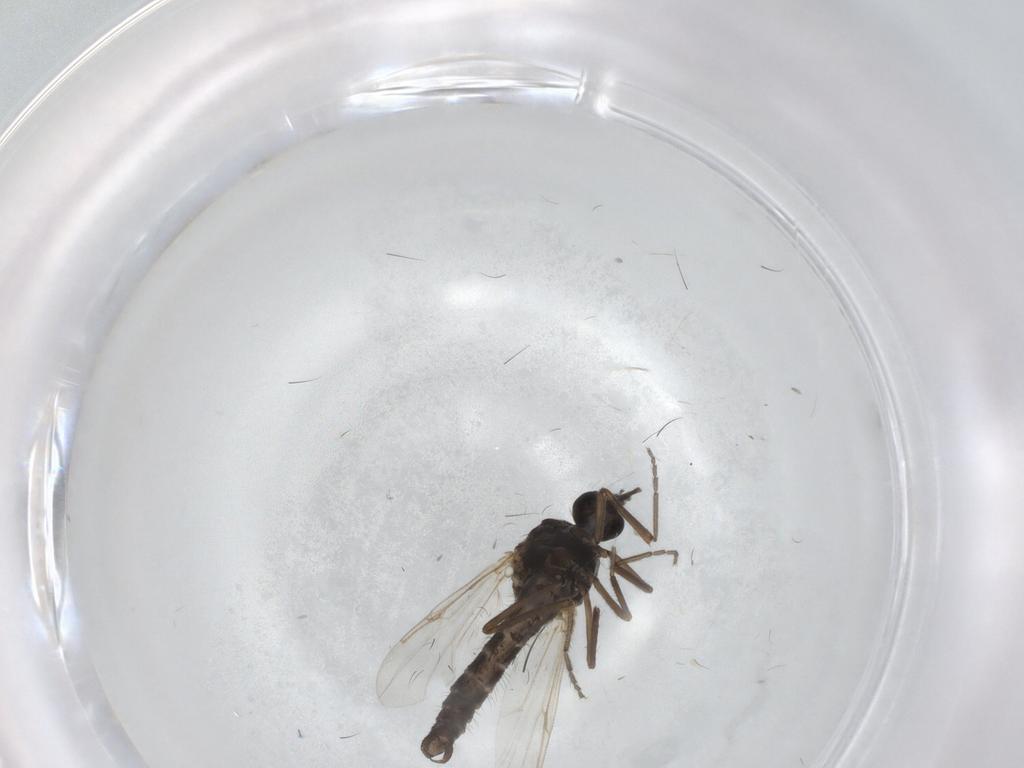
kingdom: Animalia
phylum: Arthropoda
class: Insecta
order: Diptera
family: Ceratopogonidae
